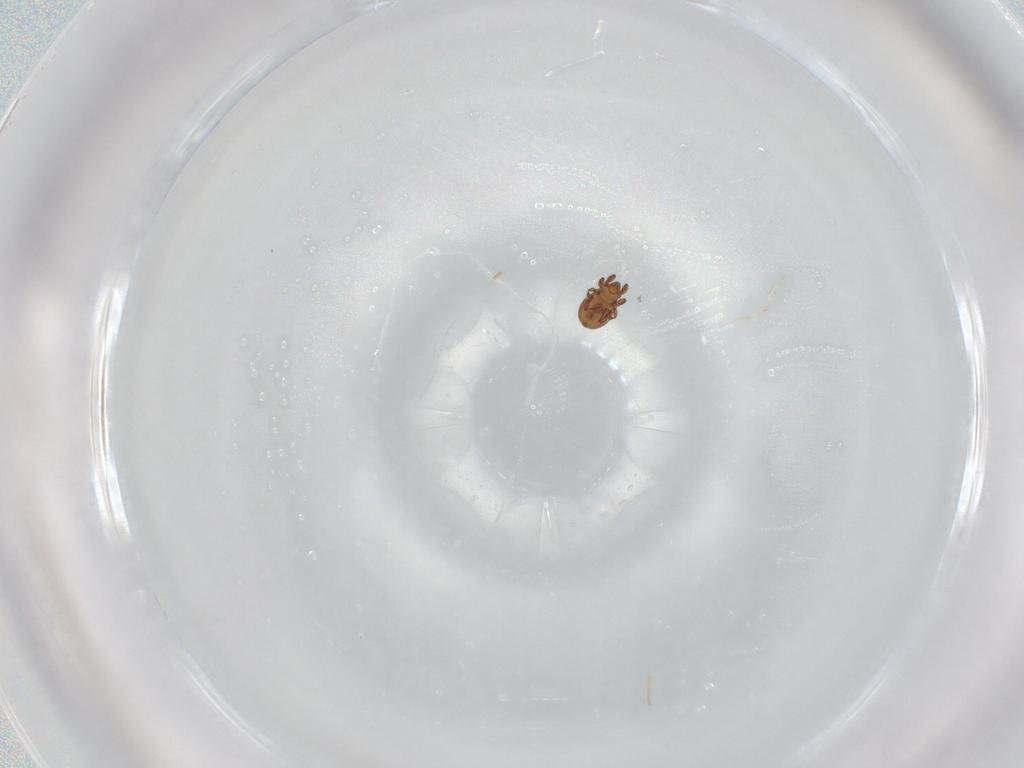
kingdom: Animalia
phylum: Arthropoda
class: Arachnida
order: Sarcoptiformes
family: Eremaeidae
